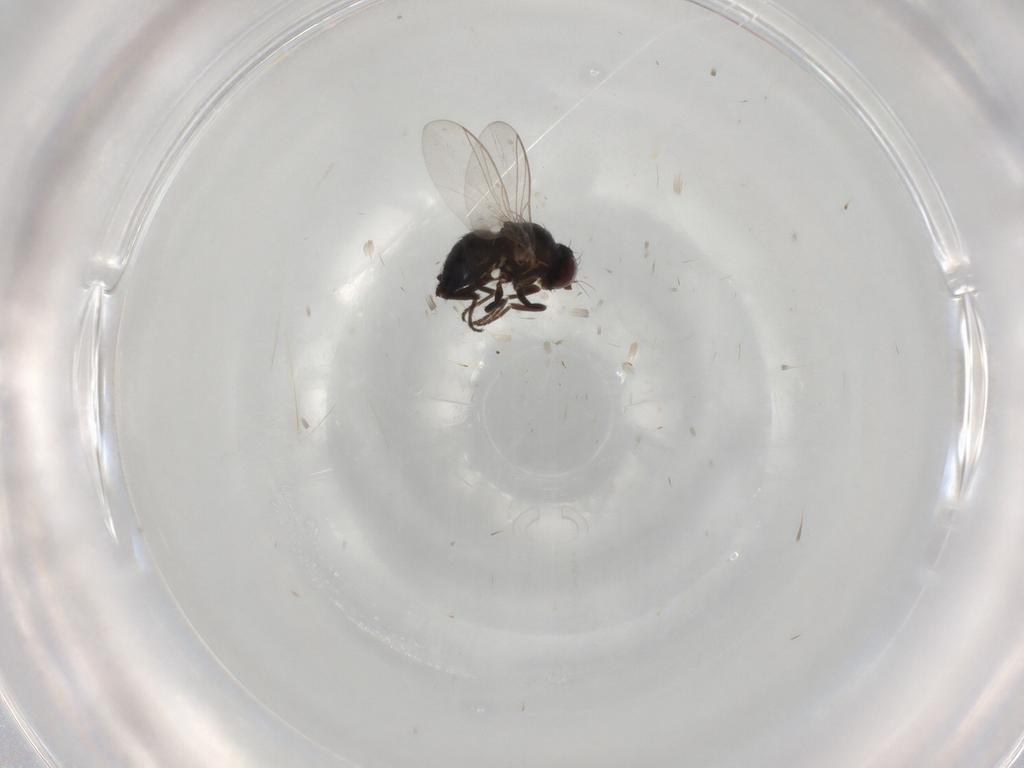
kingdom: Animalia
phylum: Arthropoda
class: Insecta
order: Diptera
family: Agromyzidae
